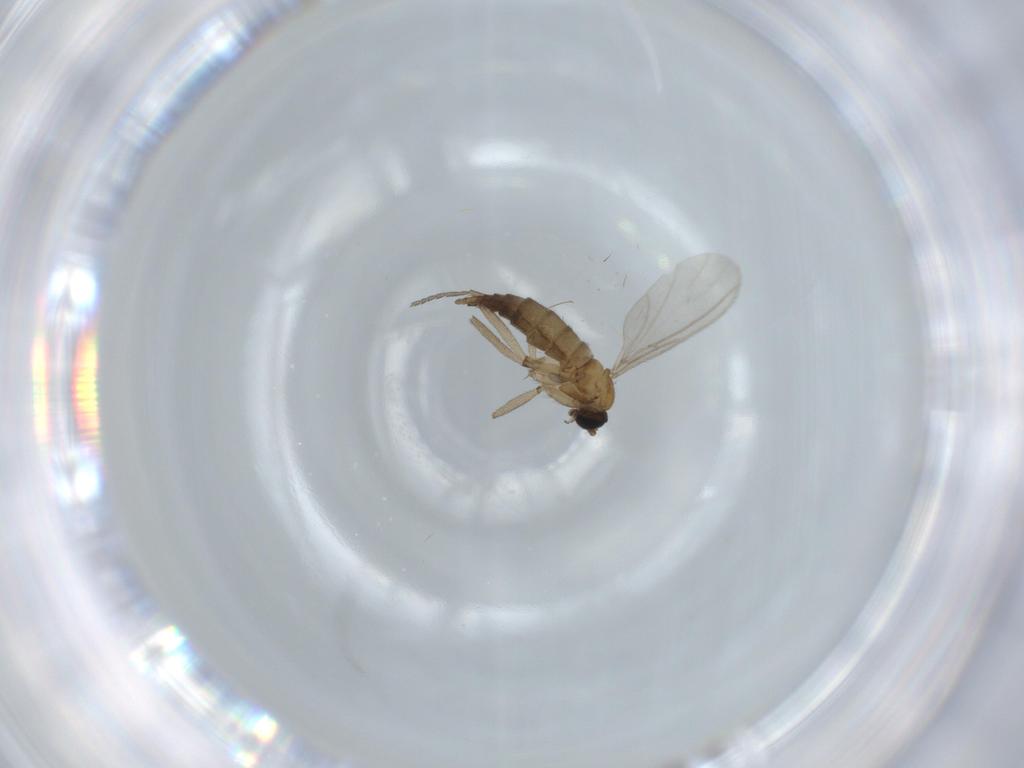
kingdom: Animalia
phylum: Arthropoda
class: Insecta
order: Diptera
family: Sciaridae
